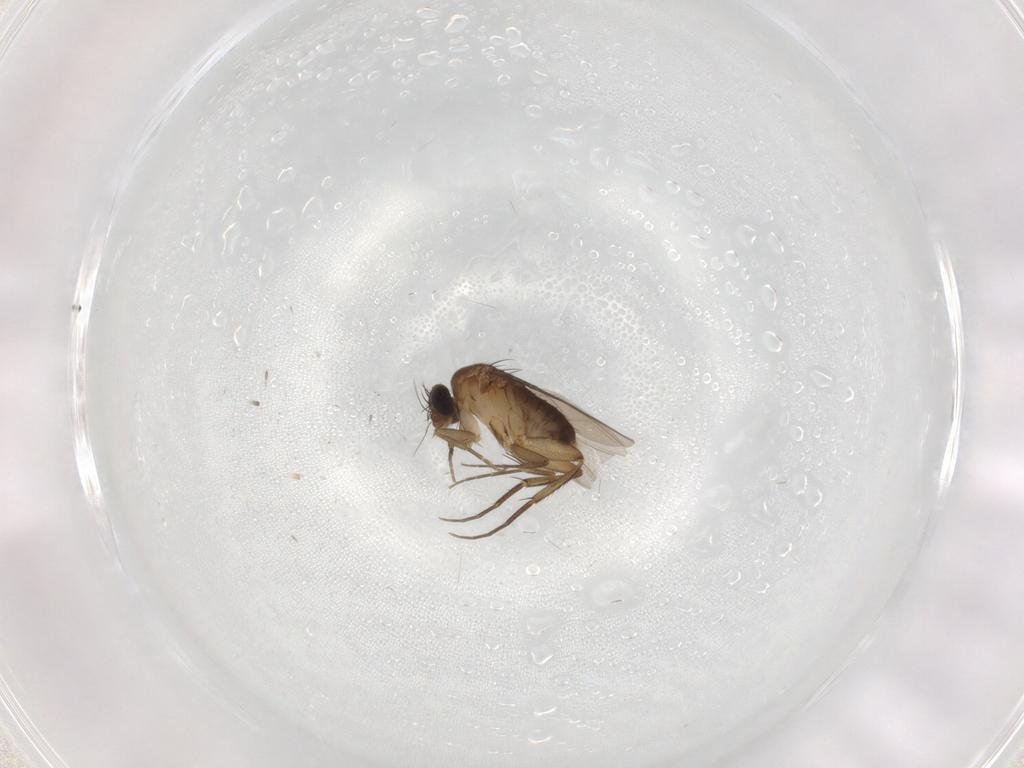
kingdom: Animalia
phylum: Arthropoda
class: Insecta
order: Diptera
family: Phoridae
